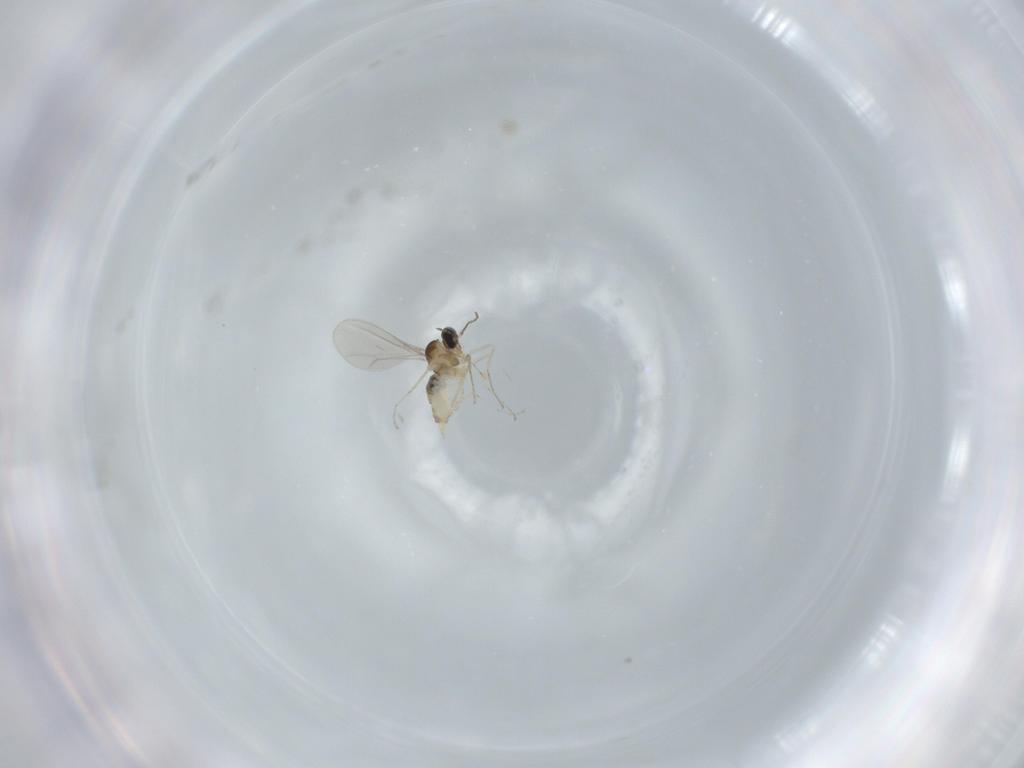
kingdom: Animalia
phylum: Arthropoda
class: Insecta
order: Diptera
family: Cecidomyiidae
